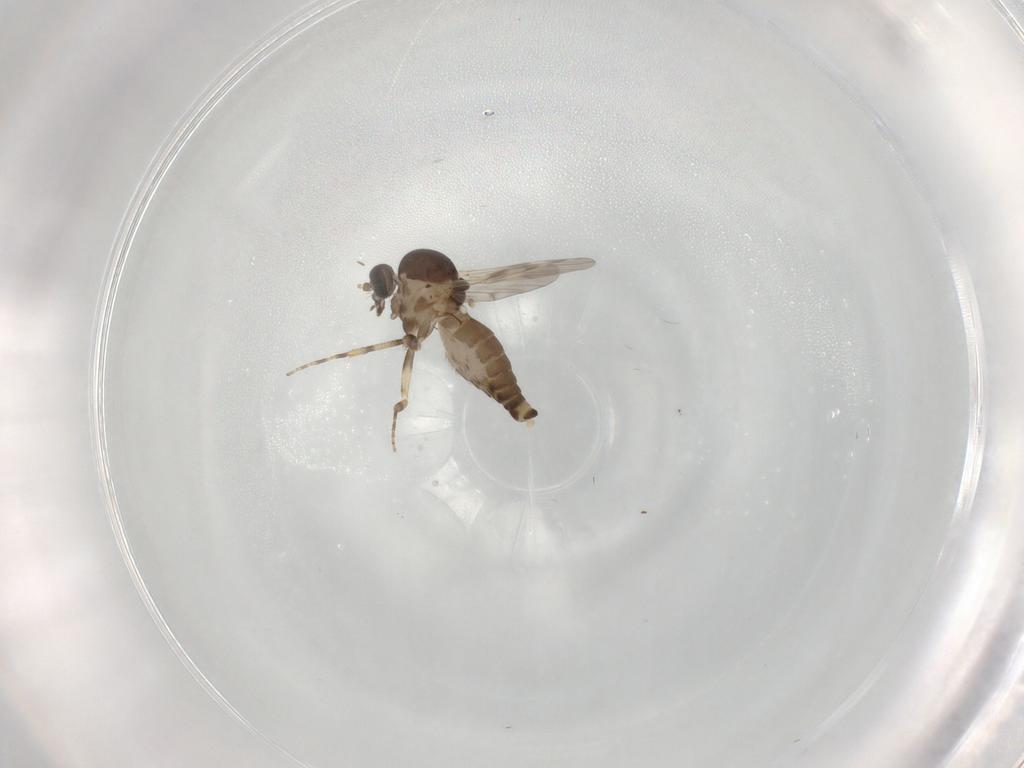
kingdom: Animalia
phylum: Arthropoda
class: Insecta
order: Diptera
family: Ceratopogonidae
